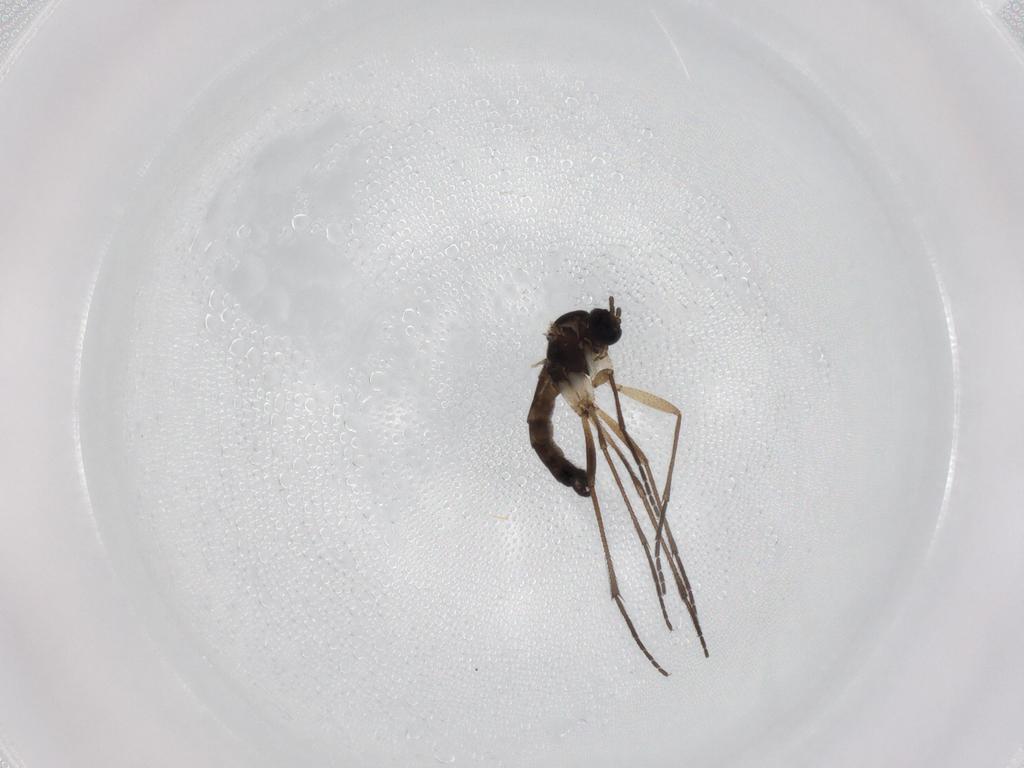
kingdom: Animalia
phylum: Arthropoda
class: Insecta
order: Diptera
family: Sciaridae
